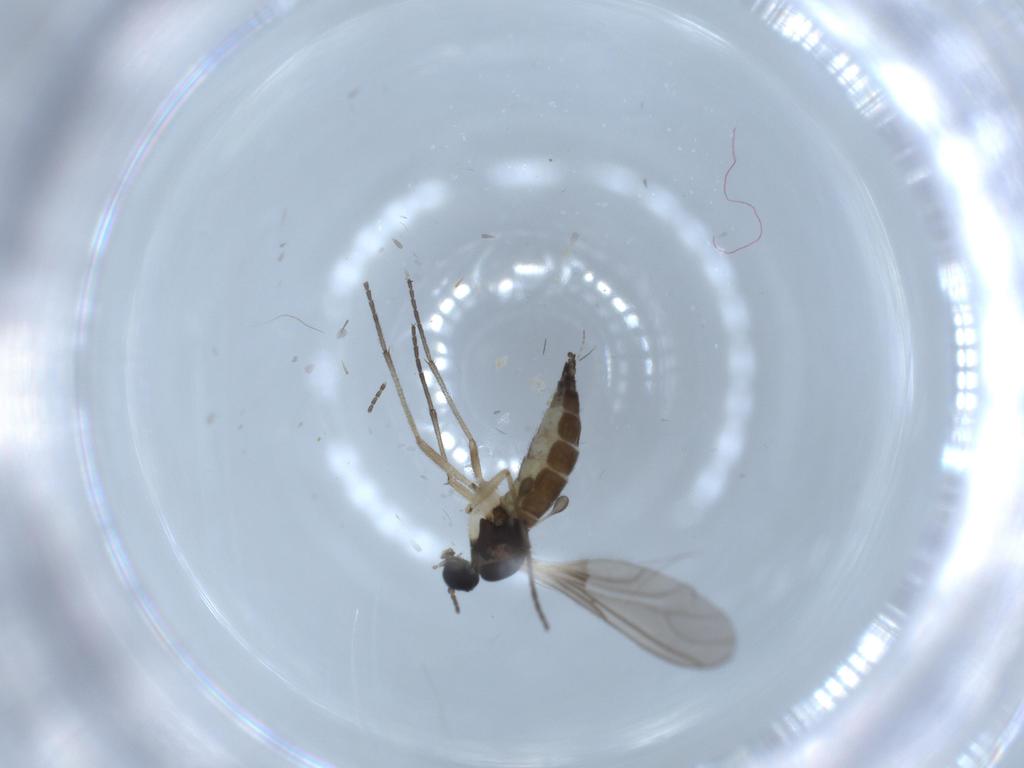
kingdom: Animalia
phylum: Arthropoda
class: Insecta
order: Diptera
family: Sciaridae
